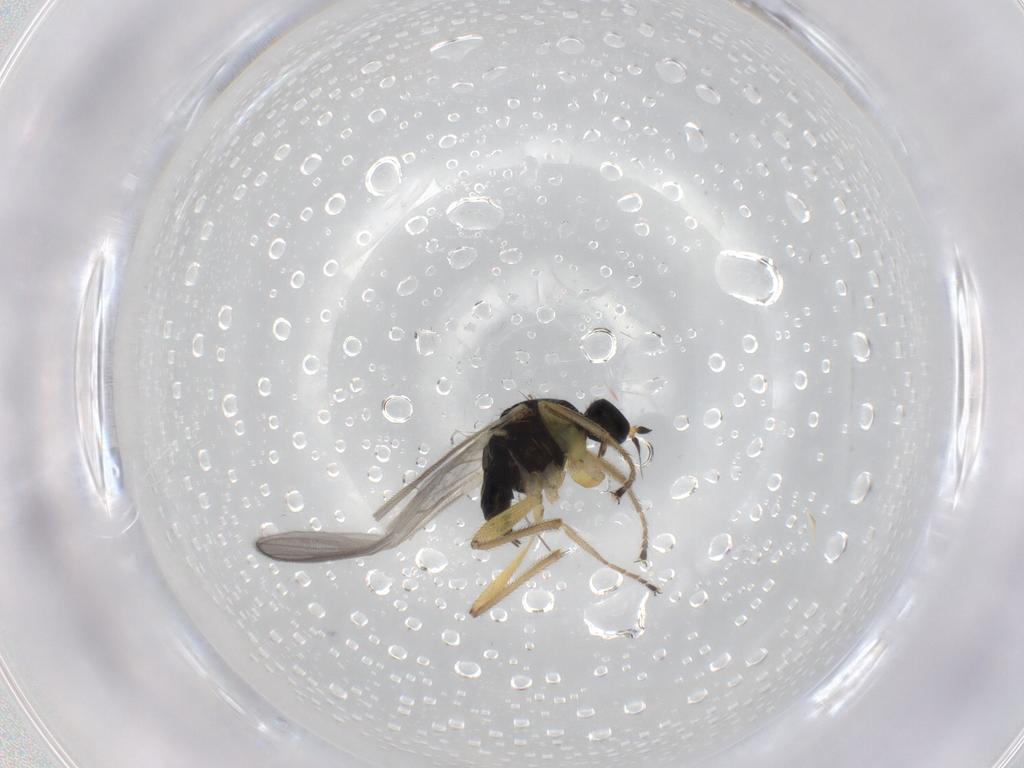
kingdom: Animalia
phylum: Arthropoda
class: Insecta
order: Diptera
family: Hybotidae
